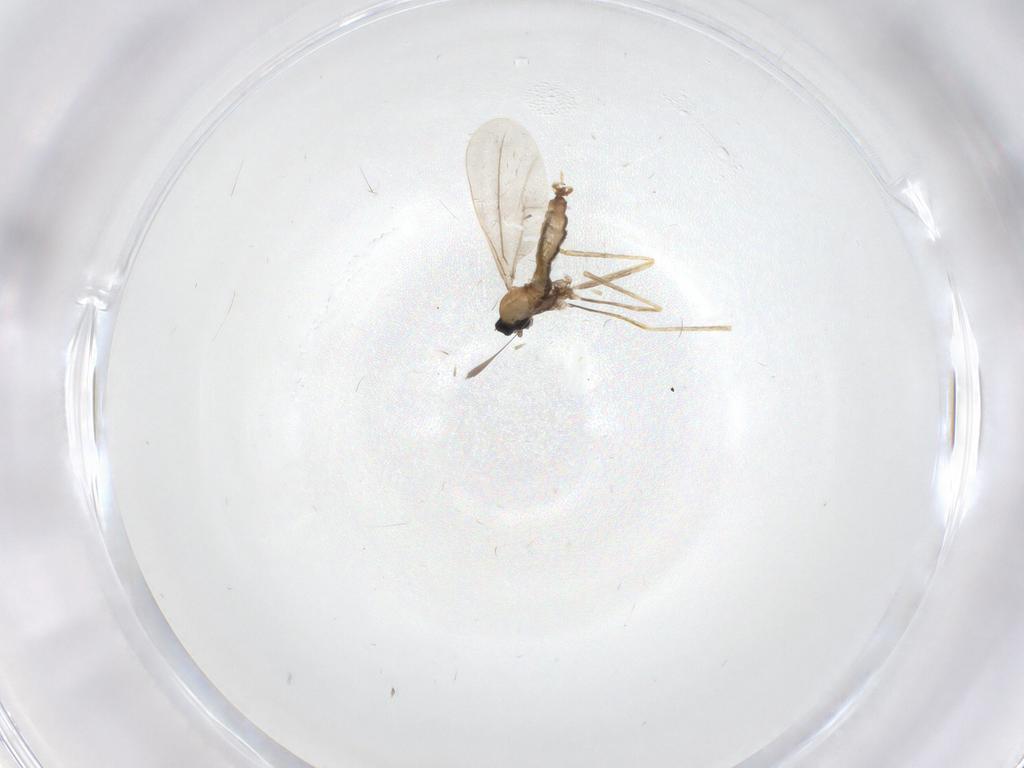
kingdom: Animalia
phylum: Arthropoda
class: Insecta
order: Diptera
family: Cecidomyiidae
